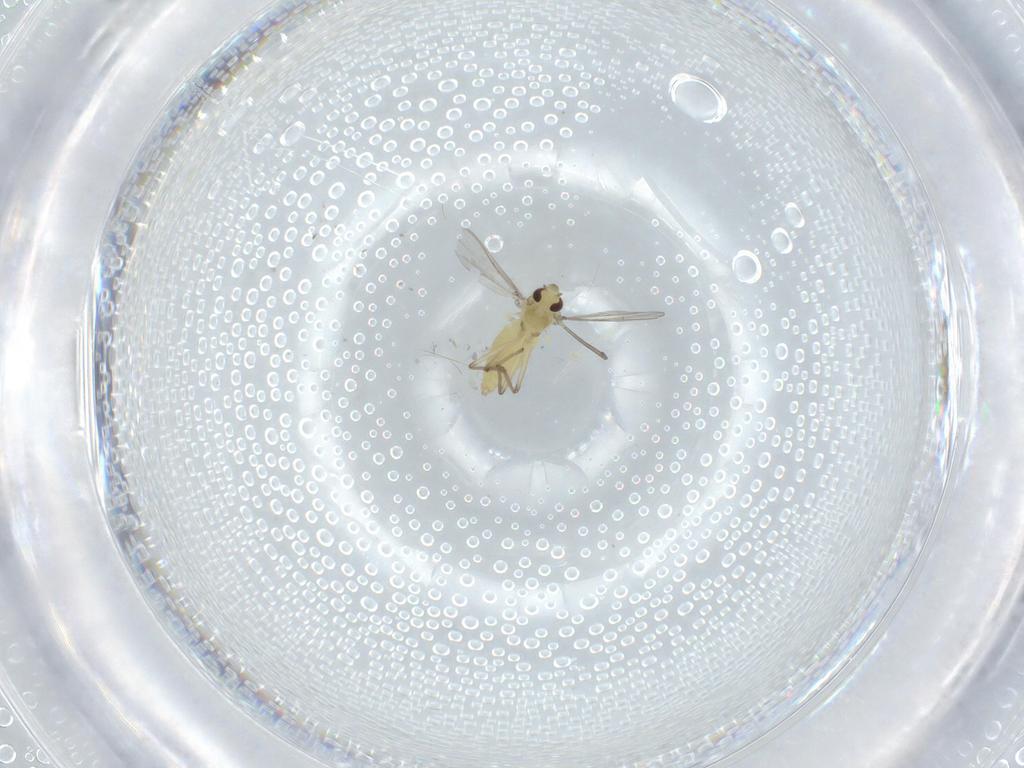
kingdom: Animalia
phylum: Arthropoda
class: Insecta
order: Diptera
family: Chironomidae
